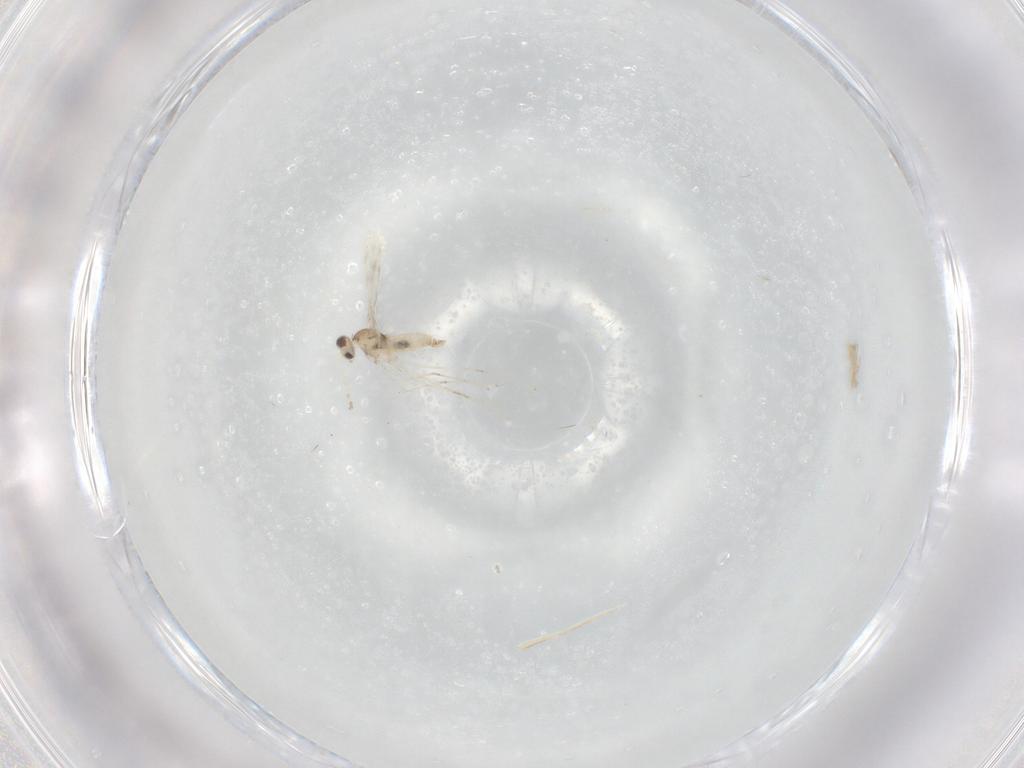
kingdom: Animalia
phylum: Arthropoda
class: Insecta
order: Diptera
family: Cecidomyiidae
